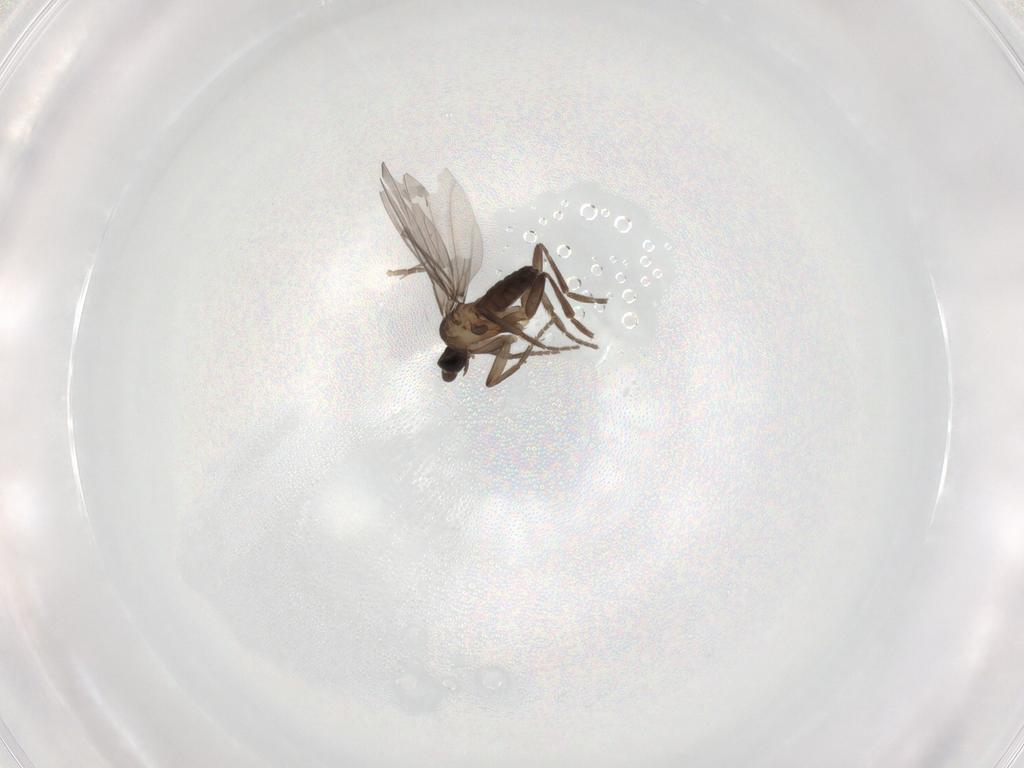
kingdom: Animalia
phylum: Arthropoda
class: Insecta
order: Diptera
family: Phoridae
